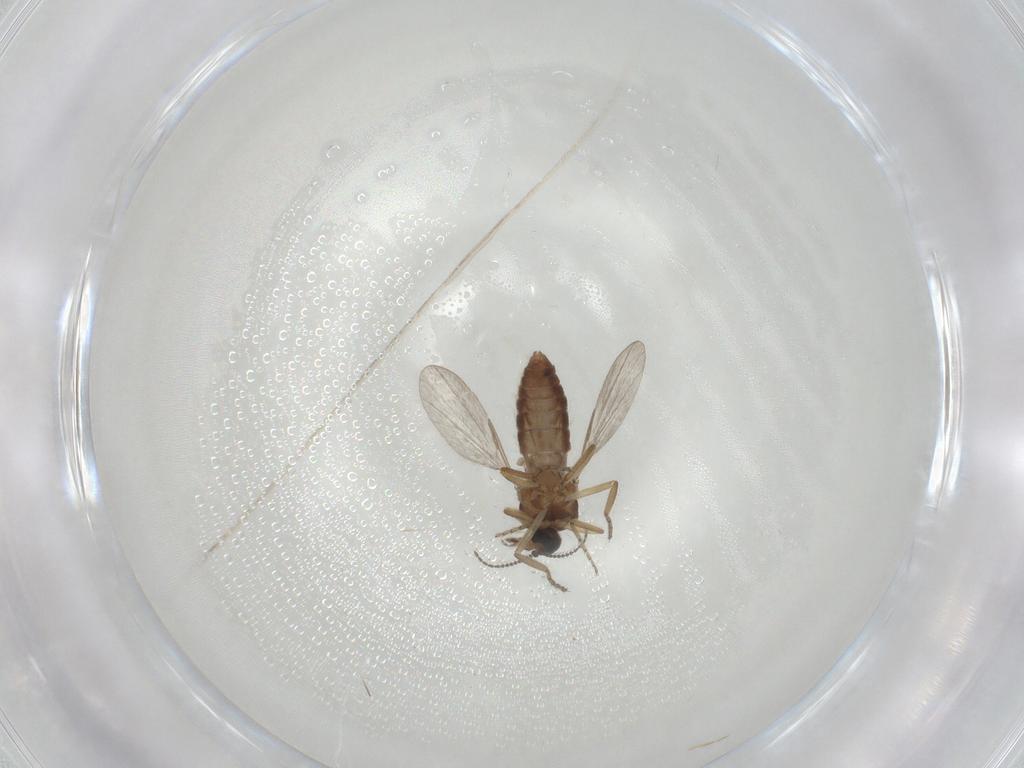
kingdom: Animalia
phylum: Arthropoda
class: Insecta
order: Diptera
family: Ceratopogonidae
